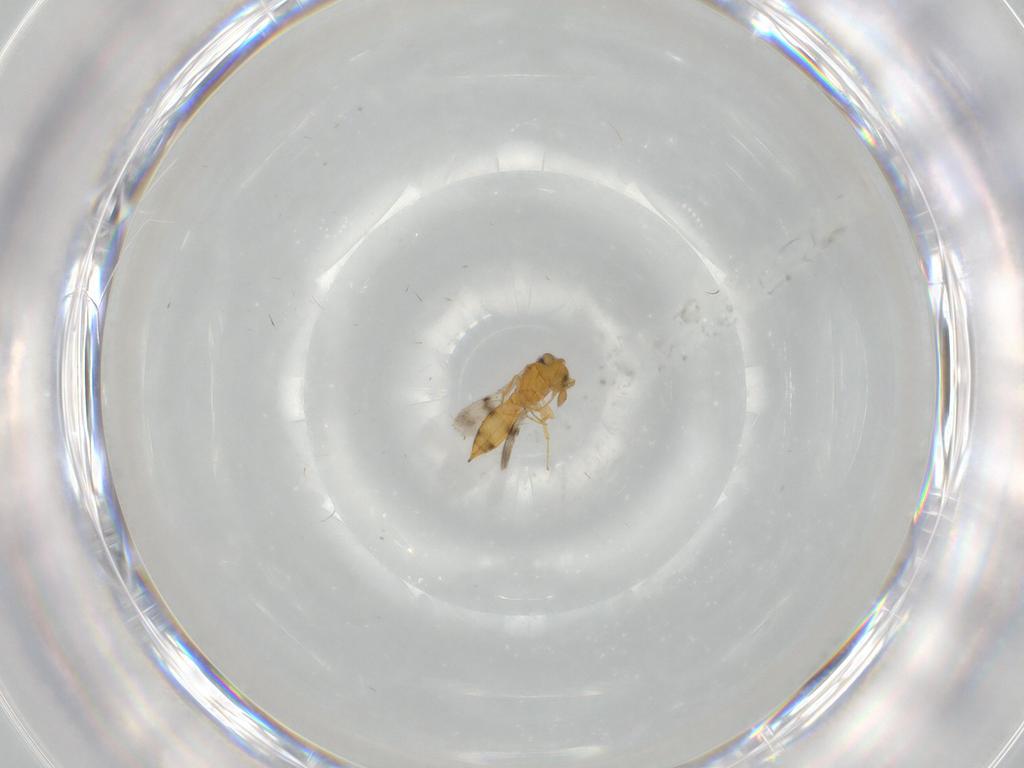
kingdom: Animalia
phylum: Arthropoda
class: Insecta
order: Hymenoptera
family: Scelionidae
